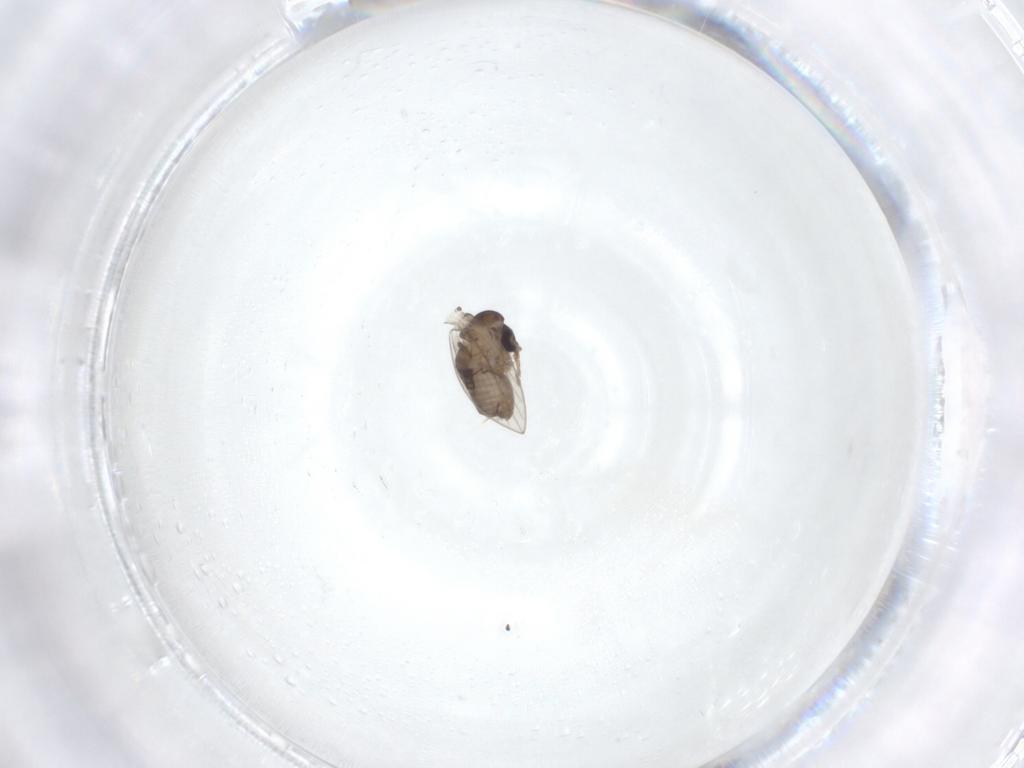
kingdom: Animalia
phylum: Arthropoda
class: Insecta
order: Diptera
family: Psychodidae
